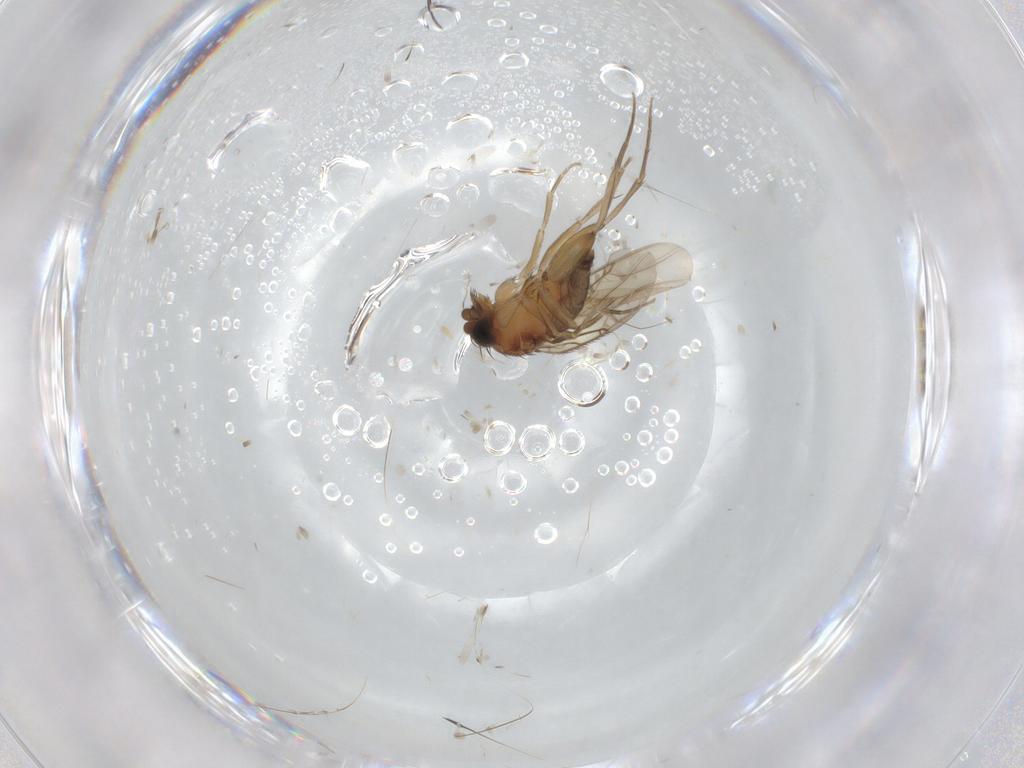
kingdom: Animalia
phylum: Arthropoda
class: Insecta
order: Diptera
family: Phoridae
